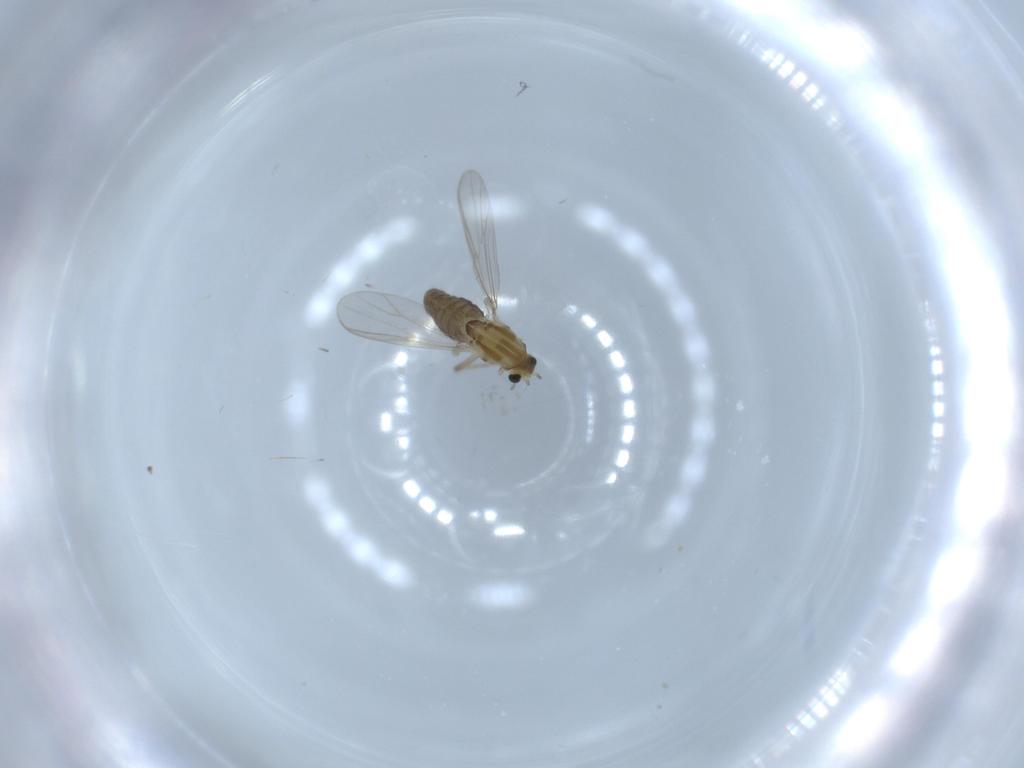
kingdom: Animalia
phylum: Arthropoda
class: Insecta
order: Diptera
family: Chironomidae
